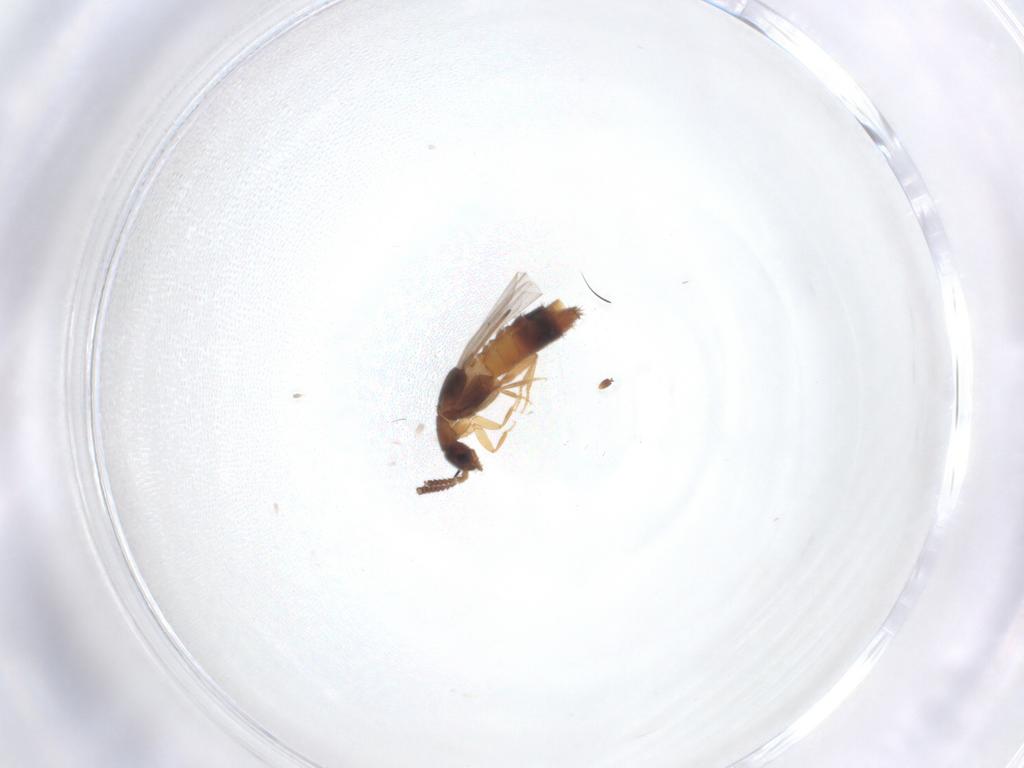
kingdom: Animalia
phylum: Arthropoda
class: Insecta
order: Coleoptera
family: Staphylinidae
